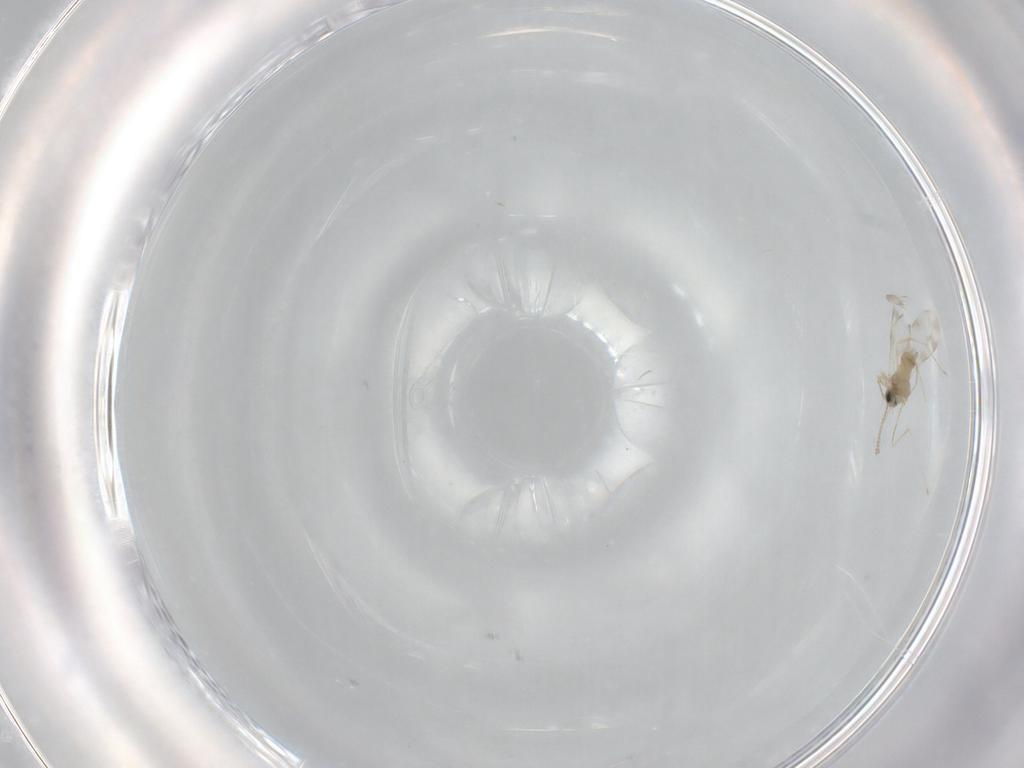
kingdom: Animalia
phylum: Arthropoda
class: Insecta
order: Diptera
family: Cecidomyiidae
